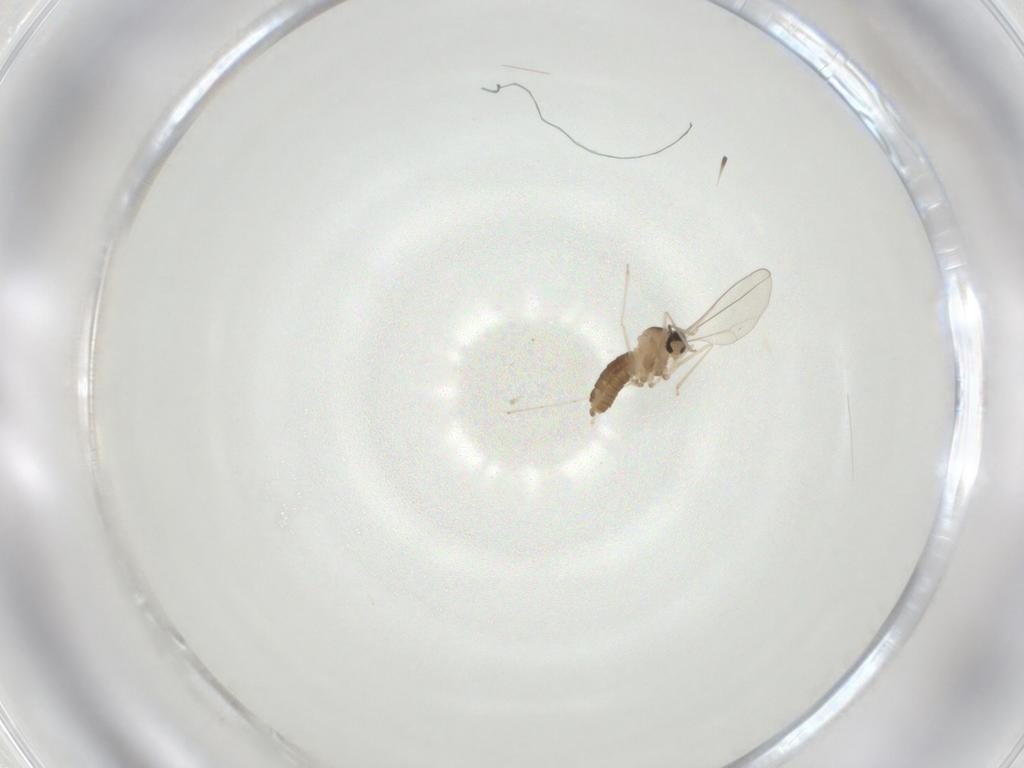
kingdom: Animalia
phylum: Arthropoda
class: Insecta
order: Diptera
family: Cecidomyiidae
